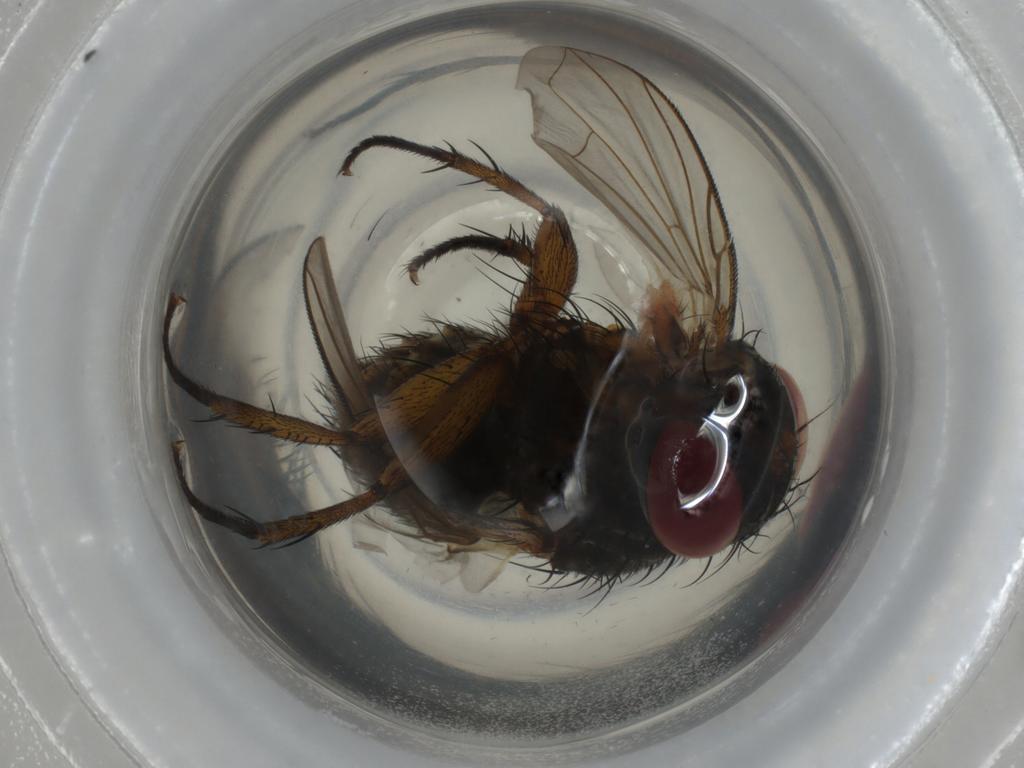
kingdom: Animalia
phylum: Arthropoda
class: Insecta
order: Diptera
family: Tachinidae
